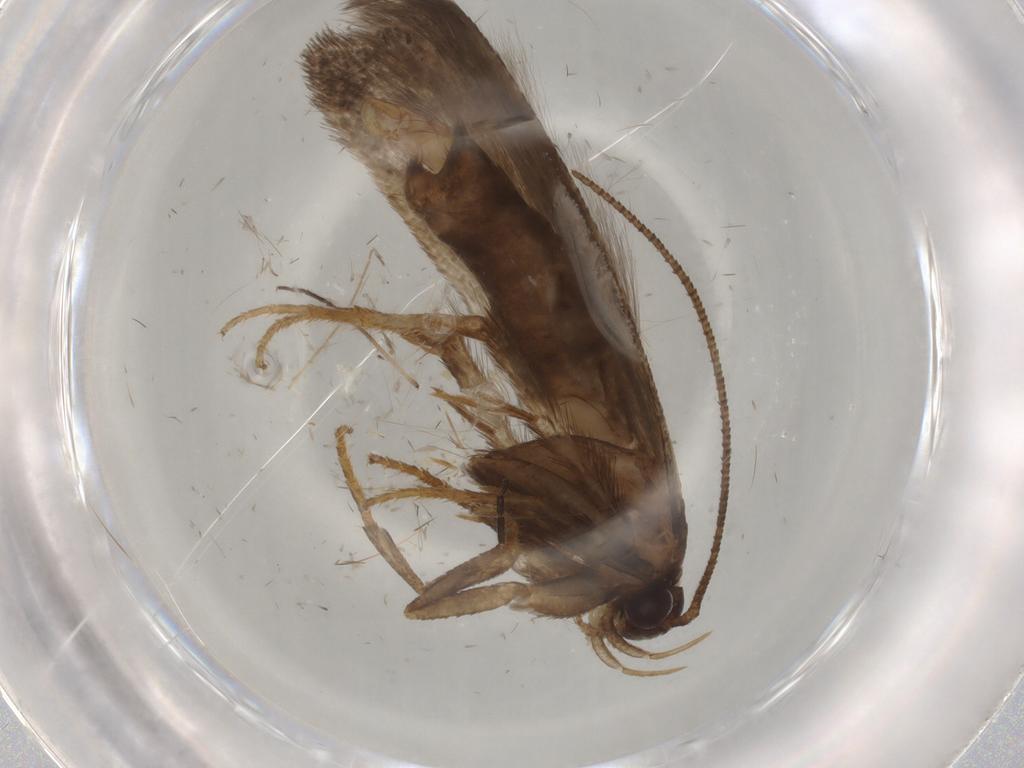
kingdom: Animalia
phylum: Arthropoda
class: Insecta
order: Lepidoptera
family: Gelechiidae
